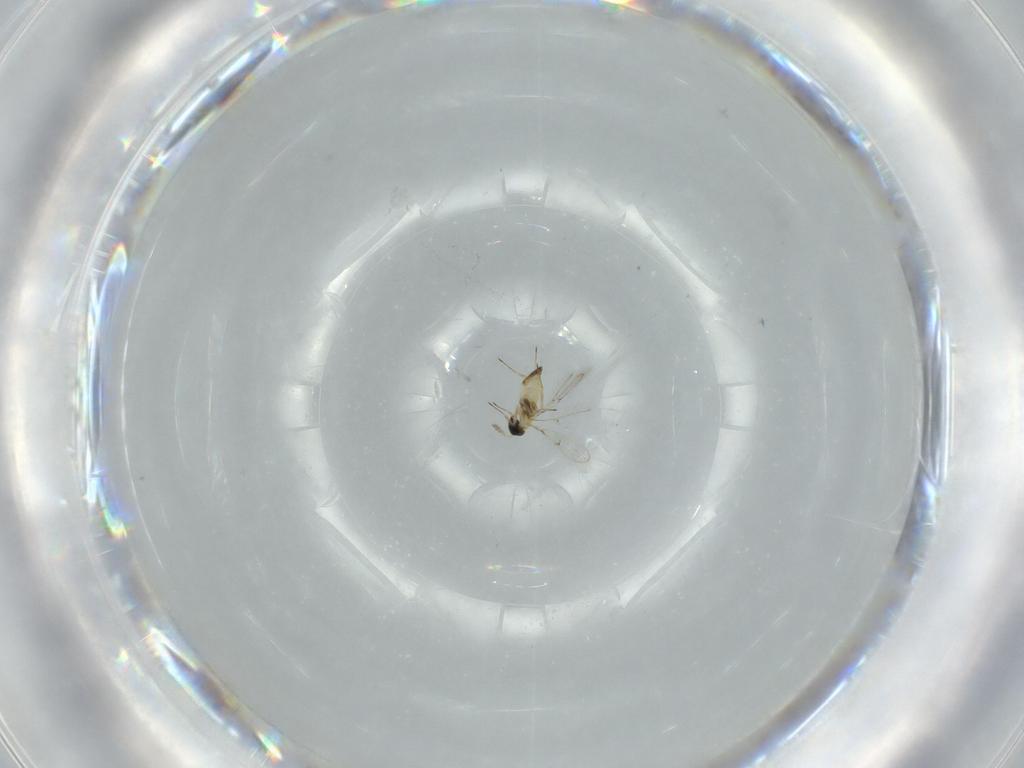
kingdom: Animalia
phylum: Arthropoda
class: Insecta
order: Hymenoptera
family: Trichogrammatidae
